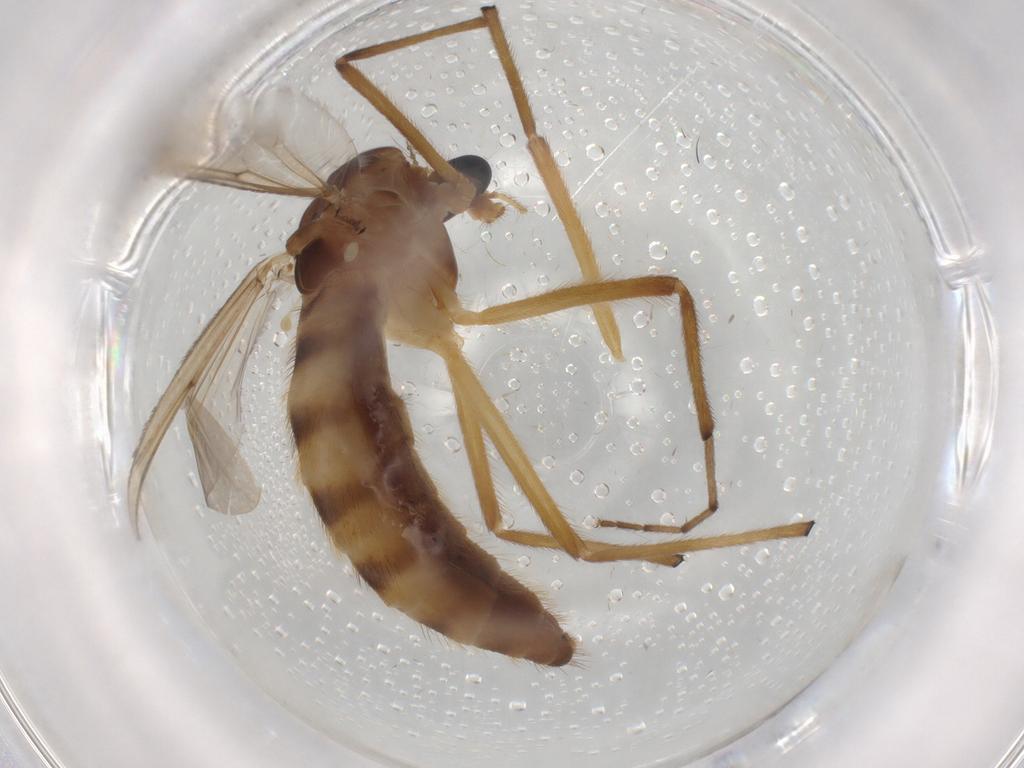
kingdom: Animalia
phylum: Arthropoda
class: Insecta
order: Diptera
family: Chironomidae
